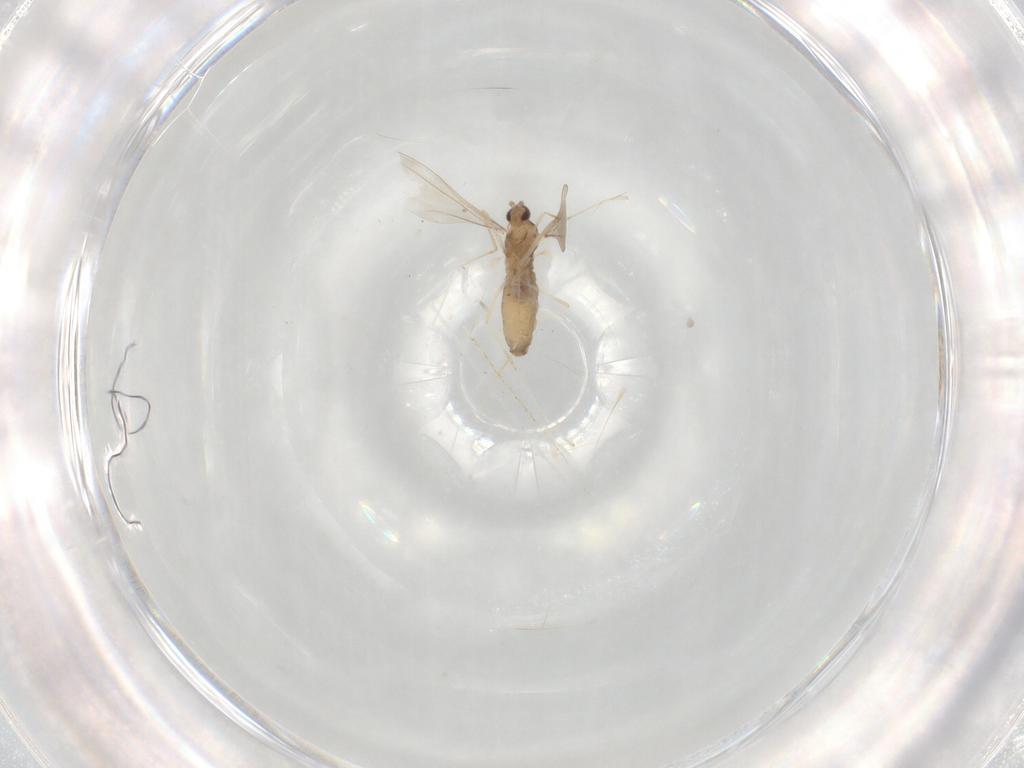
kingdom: Animalia
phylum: Arthropoda
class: Insecta
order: Diptera
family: Cecidomyiidae
